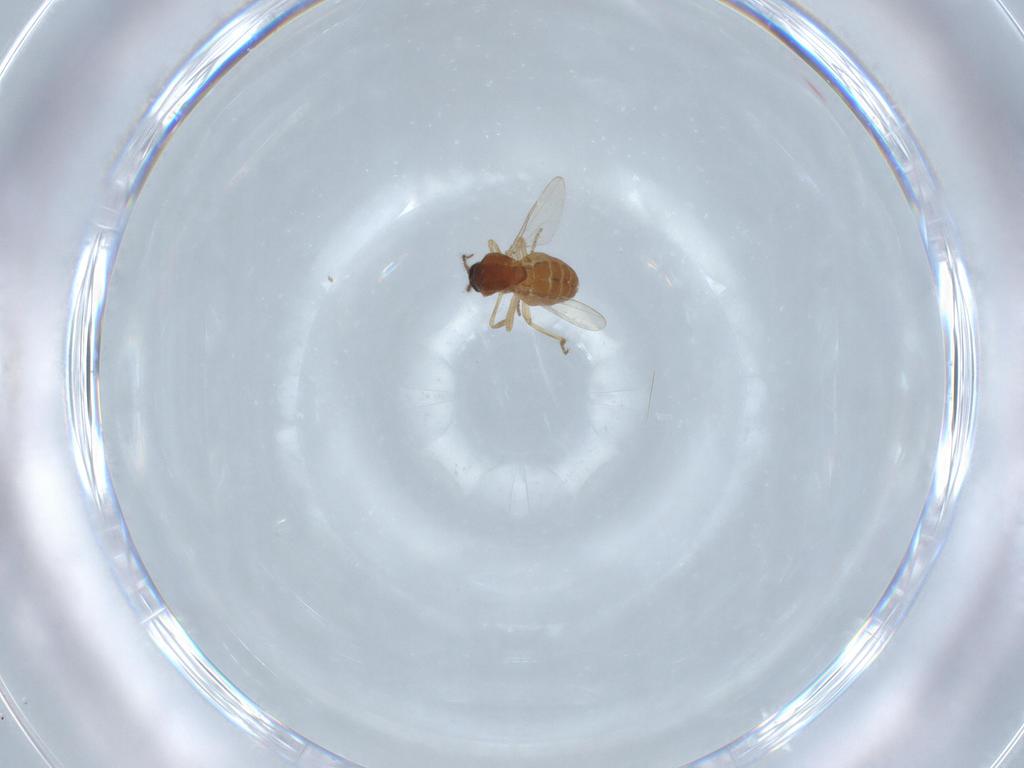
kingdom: Animalia
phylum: Arthropoda
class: Insecta
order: Diptera
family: Ceratopogonidae
